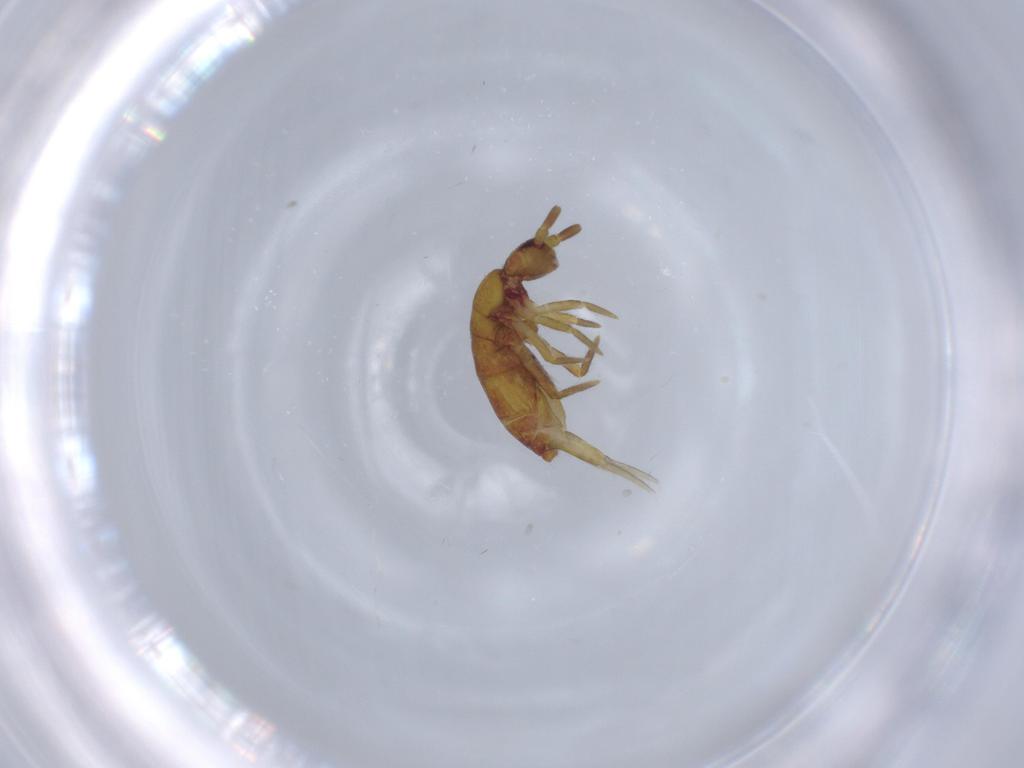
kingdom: Animalia
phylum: Arthropoda
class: Collembola
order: Entomobryomorpha
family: Tomoceridae
